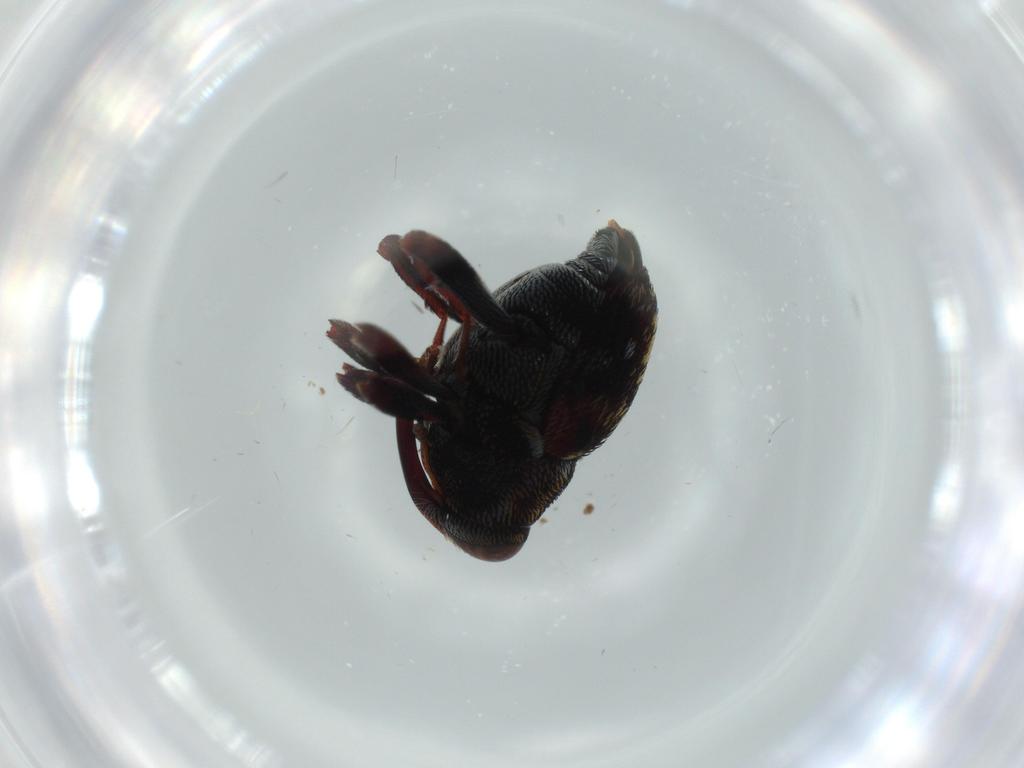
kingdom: Animalia
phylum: Arthropoda
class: Insecta
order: Coleoptera
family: Curculionidae
